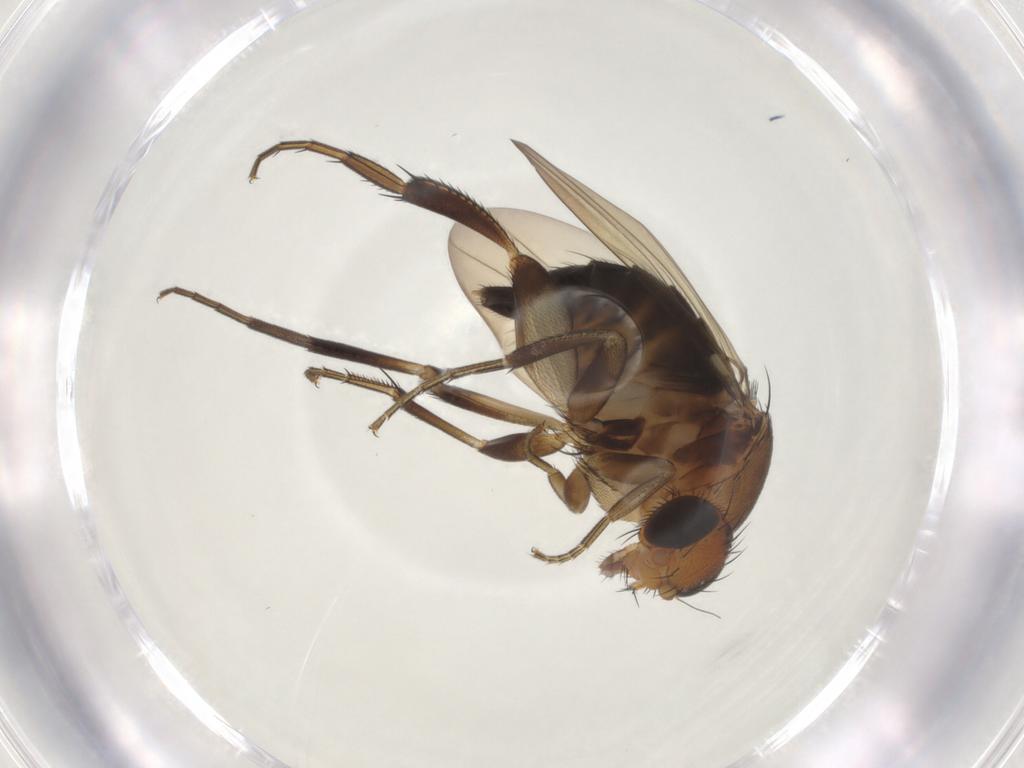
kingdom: Animalia
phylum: Arthropoda
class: Insecta
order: Diptera
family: Phoridae
